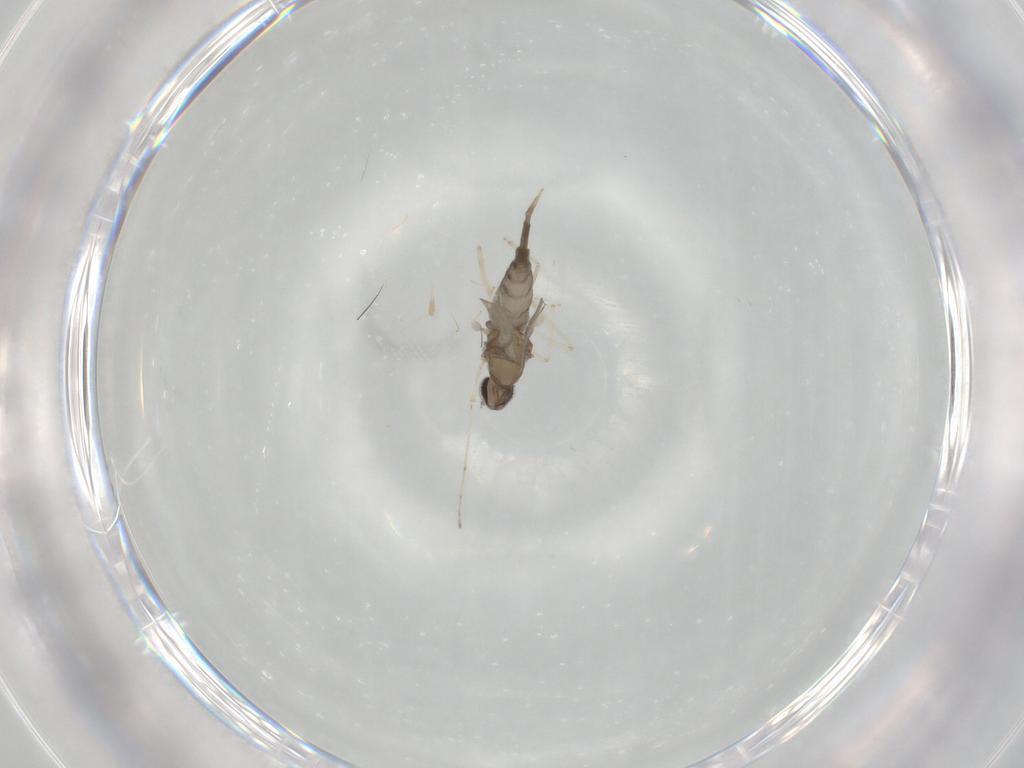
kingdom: Animalia
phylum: Arthropoda
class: Insecta
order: Diptera
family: Cecidomyiidae
